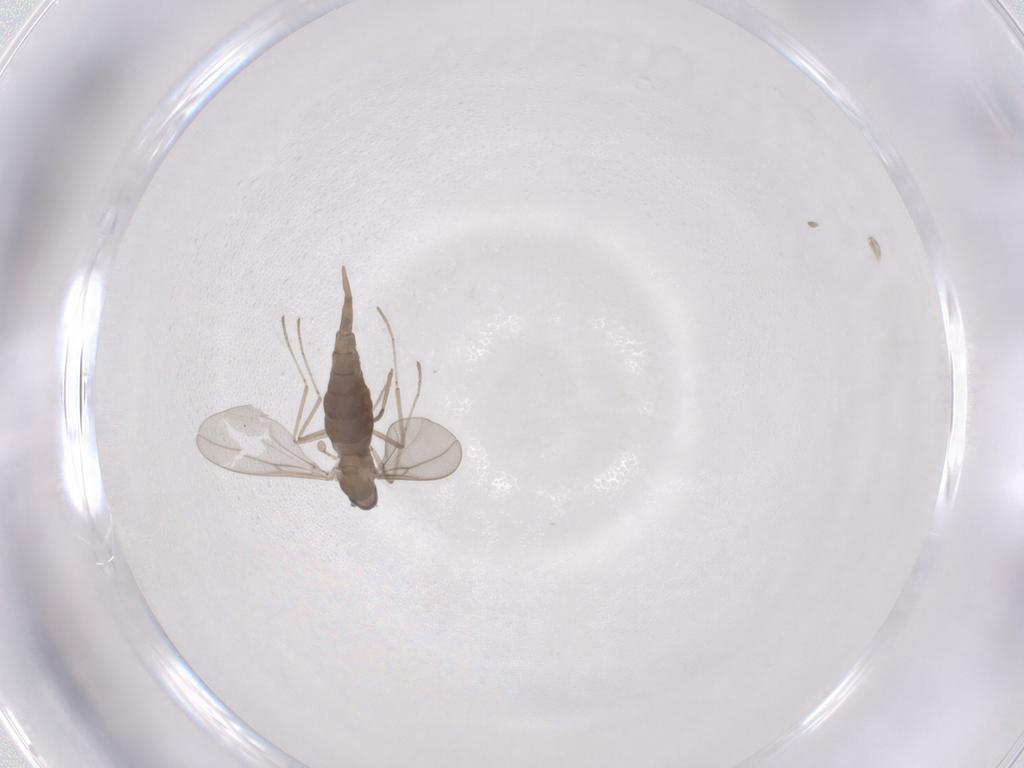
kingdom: Animalia
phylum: Arthropoda
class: Insecta
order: Diptera
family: Cecidomyiidae
